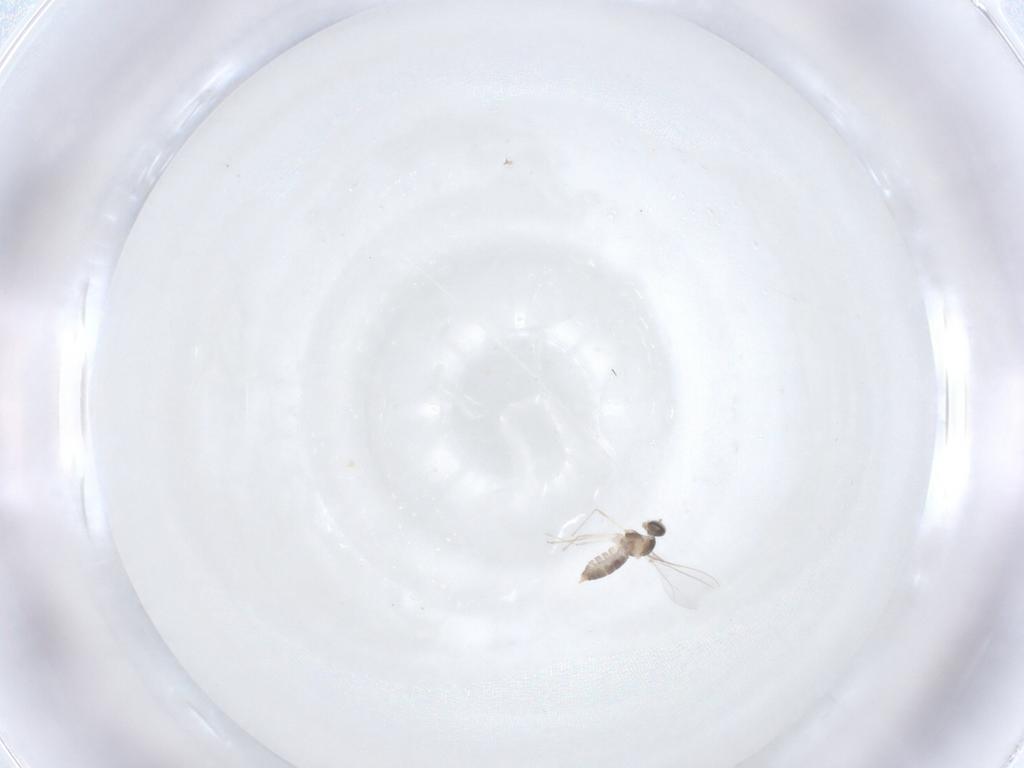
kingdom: Animalia
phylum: Arthropoda
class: Insecta
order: Diptera
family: Cecidomyiidae
